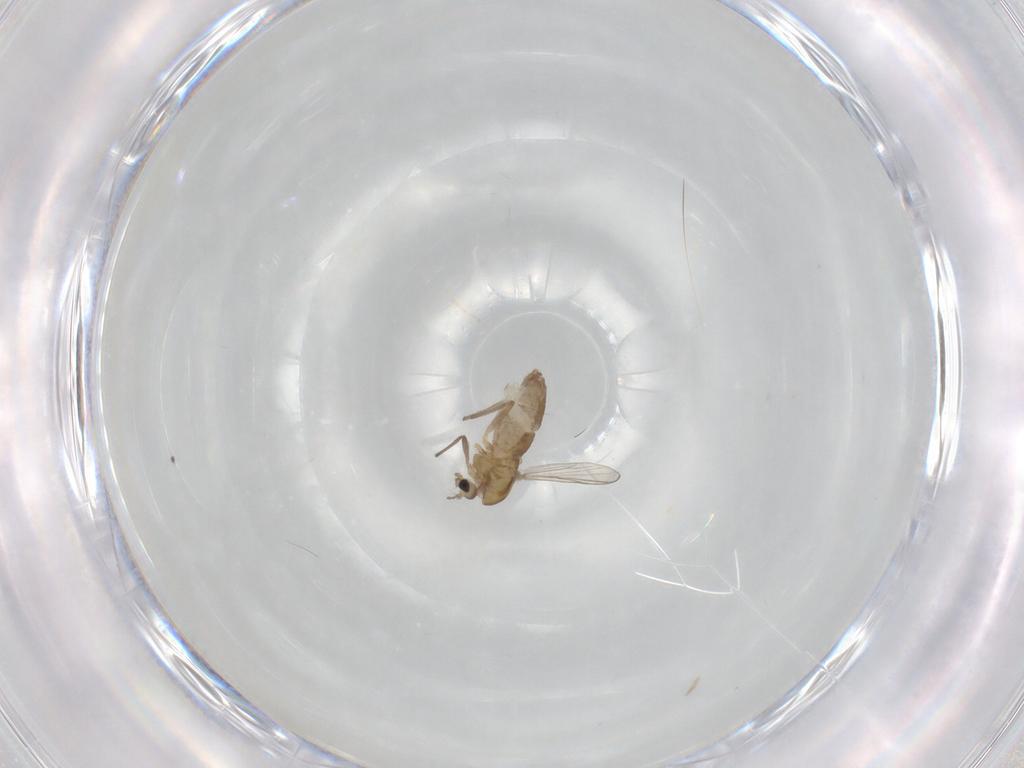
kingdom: Animalia
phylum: Arthropoda
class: Insecta
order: Diptera
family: Chironomidae
